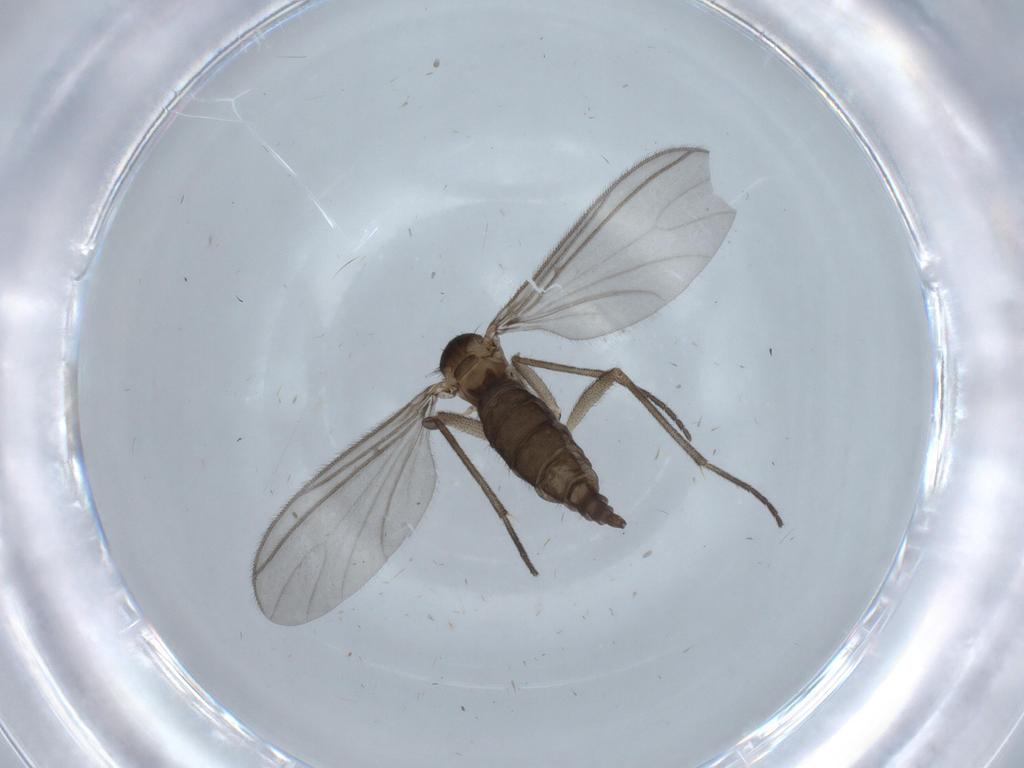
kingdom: Animalia
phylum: Arthropoda
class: Insecta
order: Diptera
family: Sciaridae
